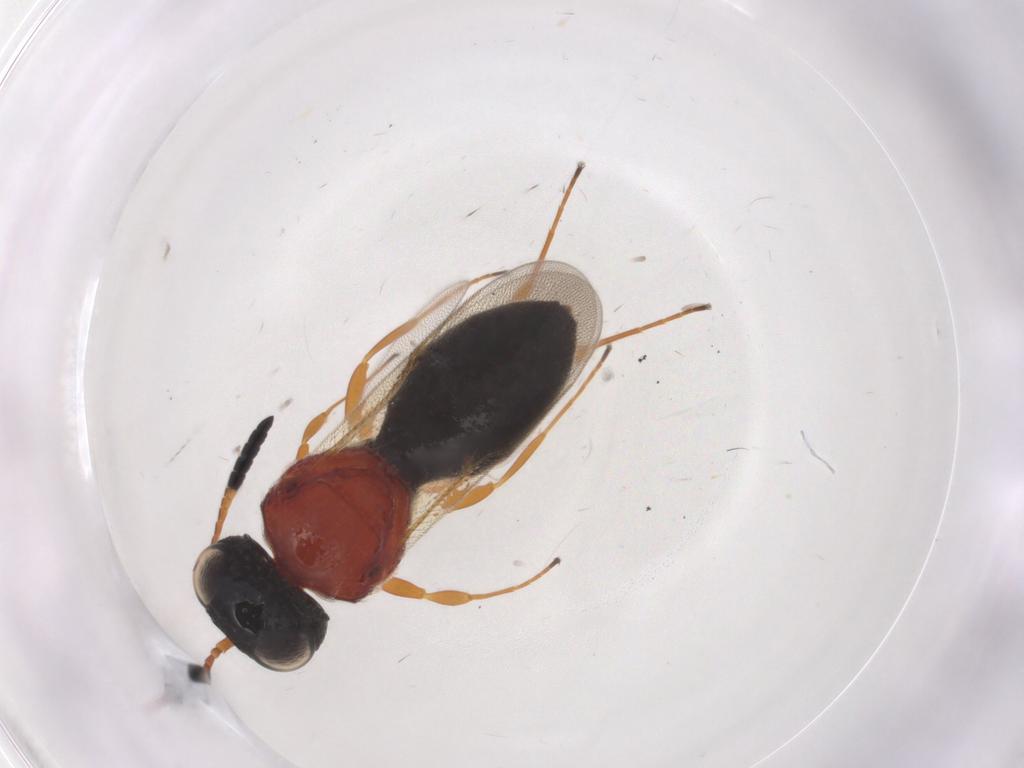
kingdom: Animalia
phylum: Arthropoda
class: Insecta
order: Hymenoptera
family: Scelionidae
